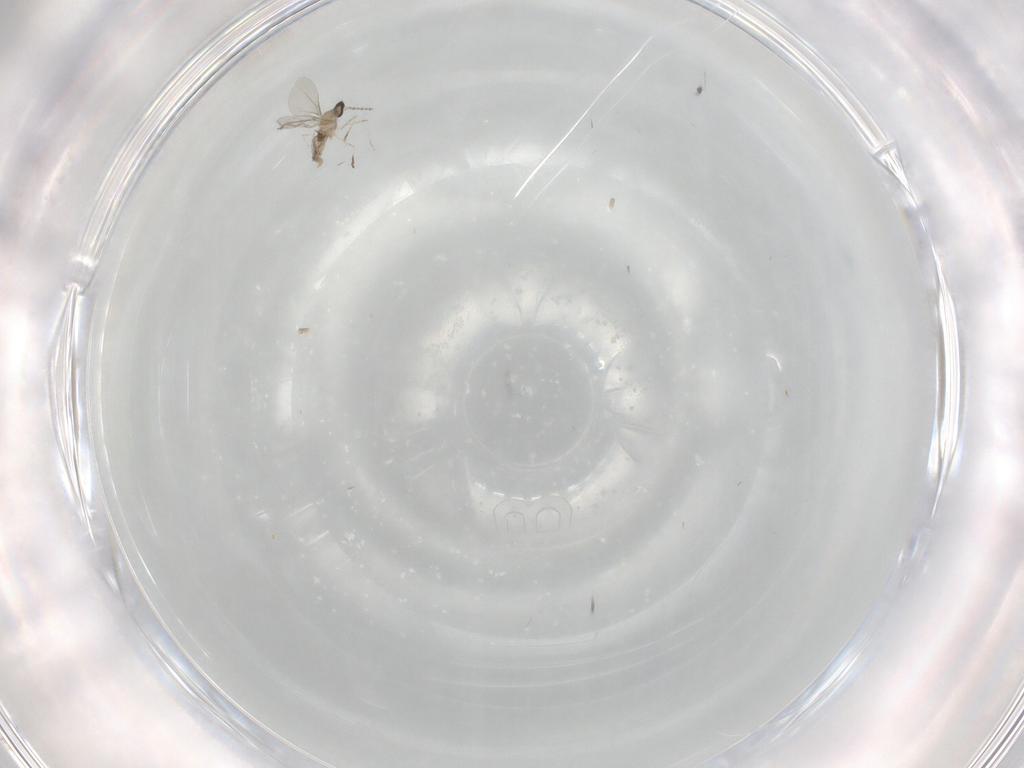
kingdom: Animalia
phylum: Arthropoda
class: Insecta
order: Diptera
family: Cecidomyiidae
